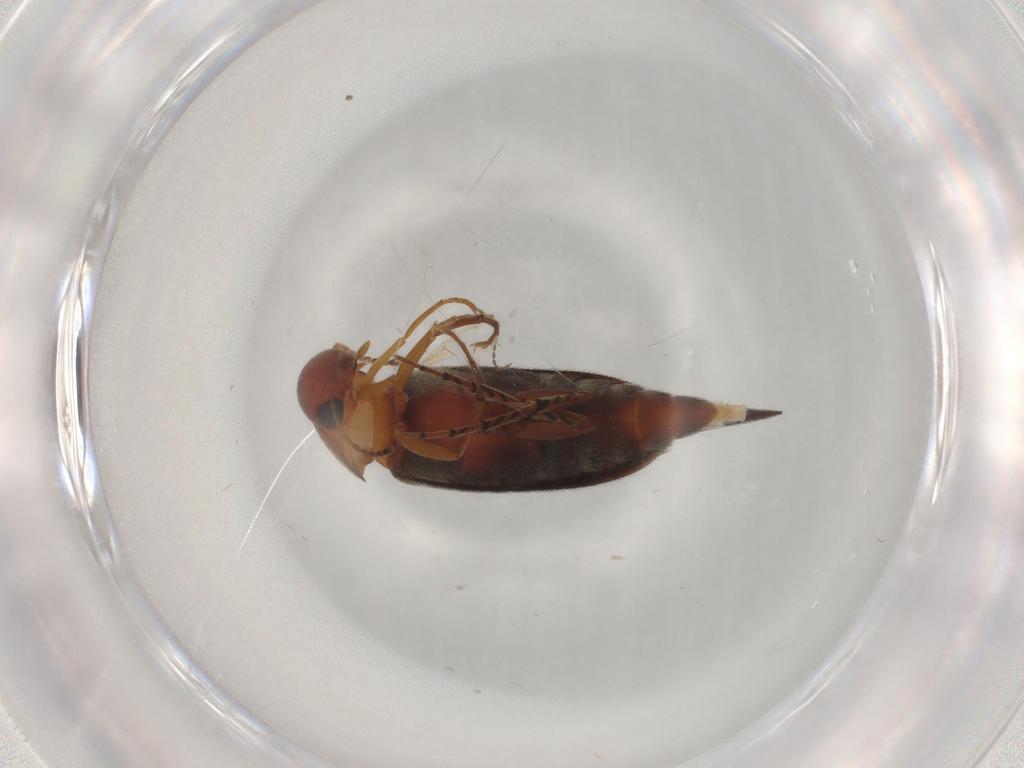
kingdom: Animalia
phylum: Arthropoda
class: Insecta
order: Coleoptera
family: Mordellidae
